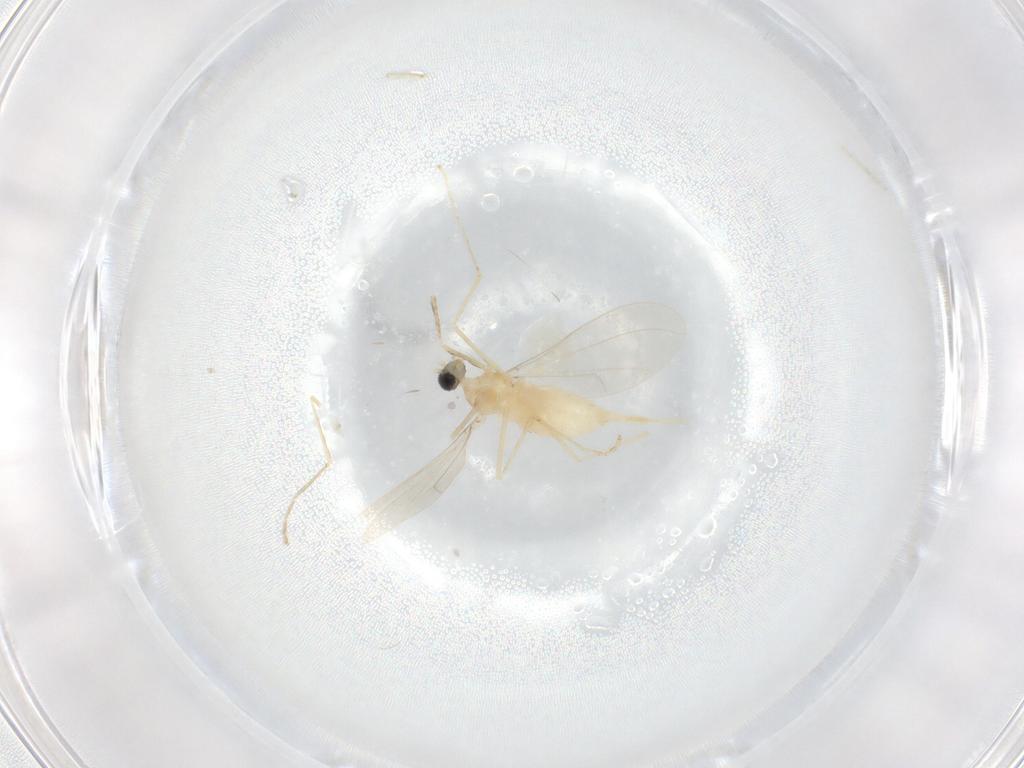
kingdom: Animalia
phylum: Arthropoda
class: Insecta
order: Diptera
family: Cecidomyiidae
